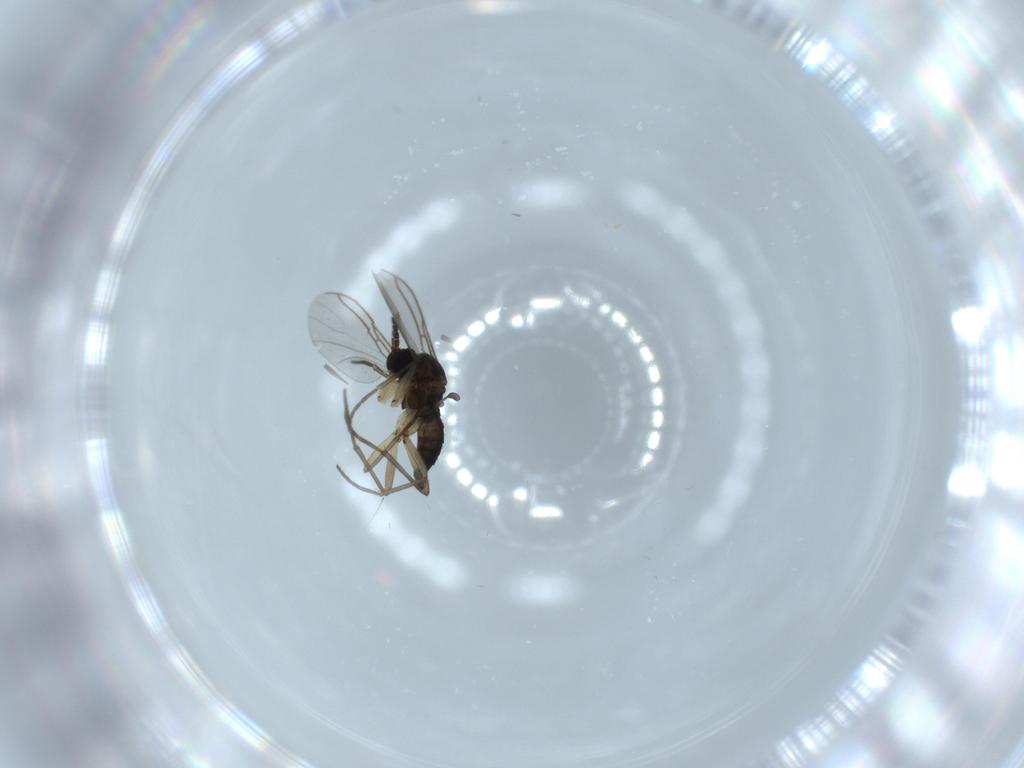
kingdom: Animalia
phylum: Arthropoda
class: Insecta
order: Diptera
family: Sciaridae
